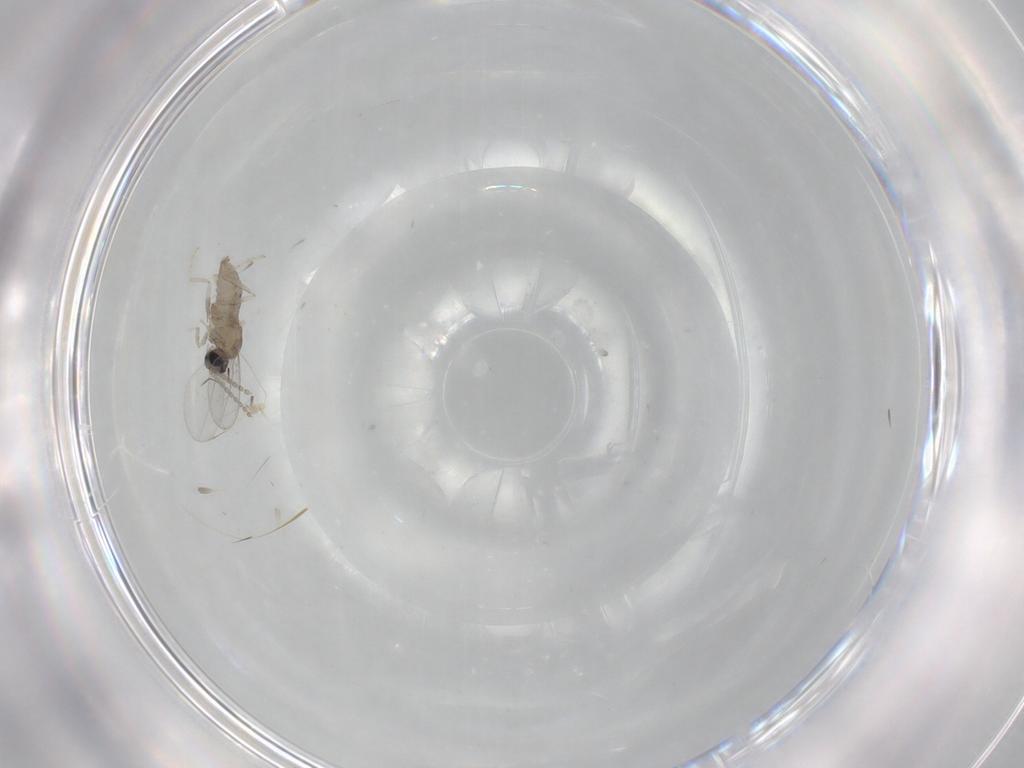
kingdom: Animalia
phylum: Arthropoda
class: Insecta
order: Diptera
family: Cecidomyiidae
